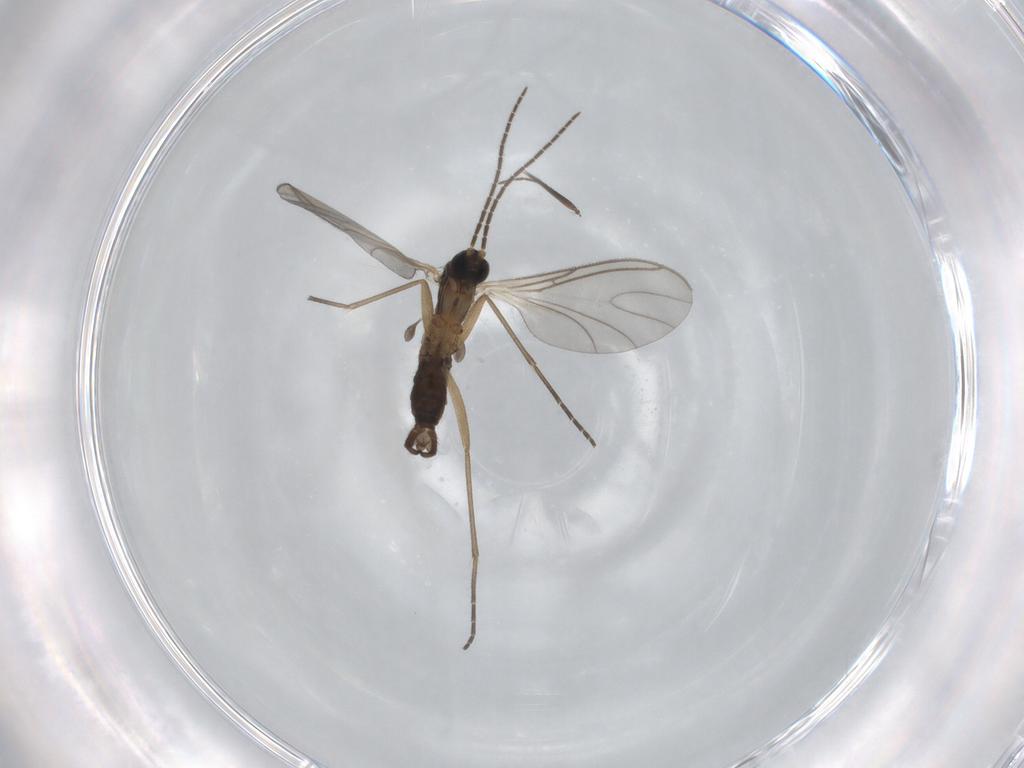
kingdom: Animalia
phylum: Arthropoda
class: Insecta
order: Diptera
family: Sciaridae
